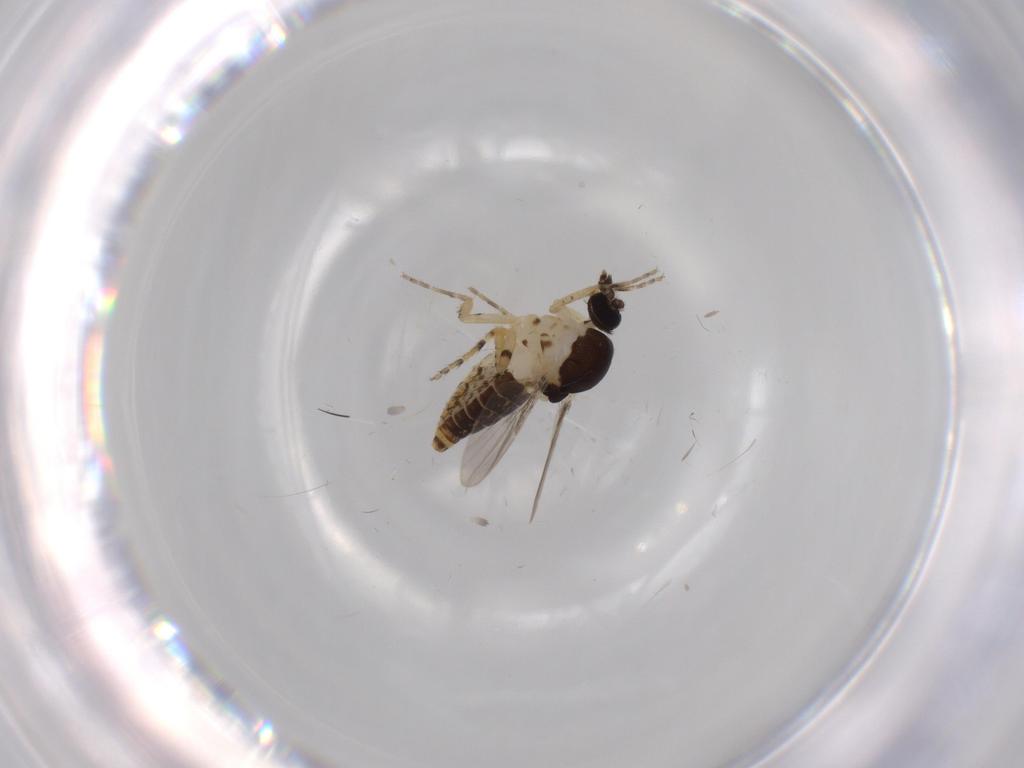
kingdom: Animalia
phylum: Arthropoda
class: Insecta
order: Diptera
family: Ceratopogonidae
